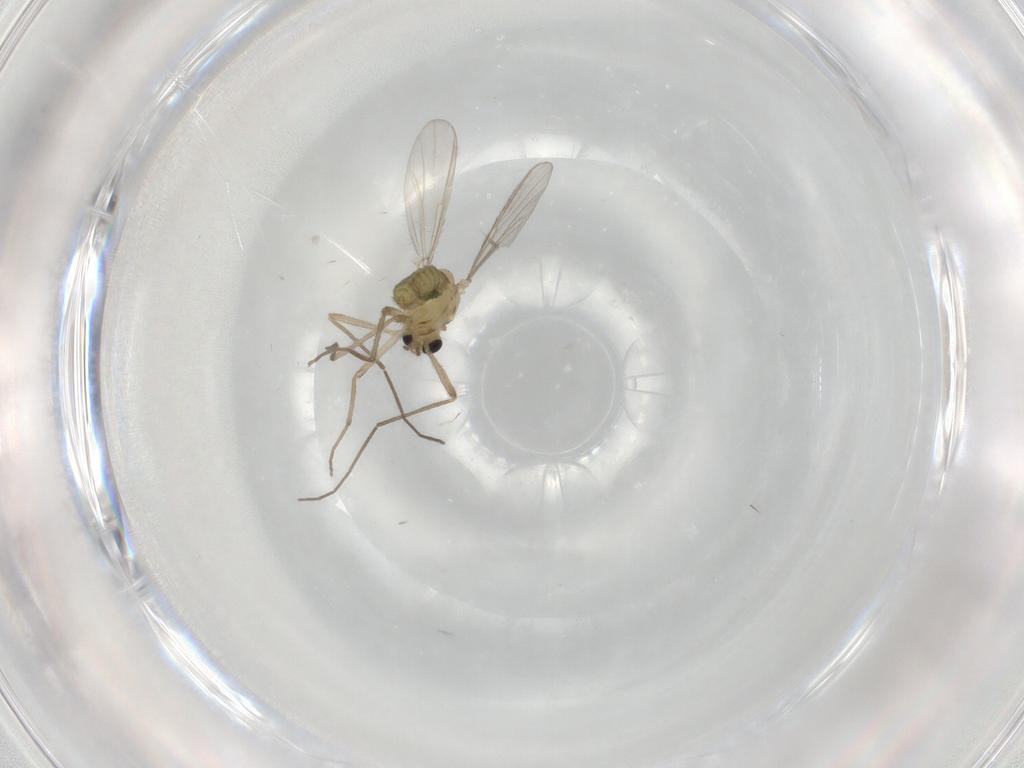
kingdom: Animalia
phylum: Arthropoda
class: Insecta
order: Diptera
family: Chironomidae
